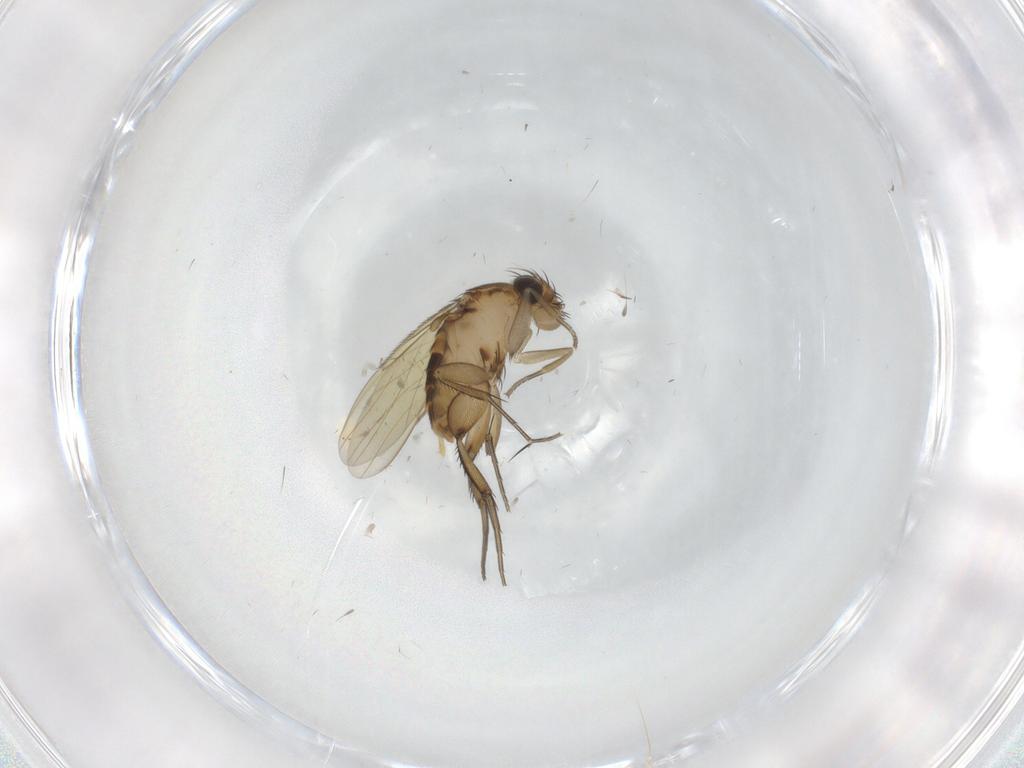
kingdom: Animalia
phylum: Arthropoda
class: Insecta
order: Diptera
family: Phoridae
